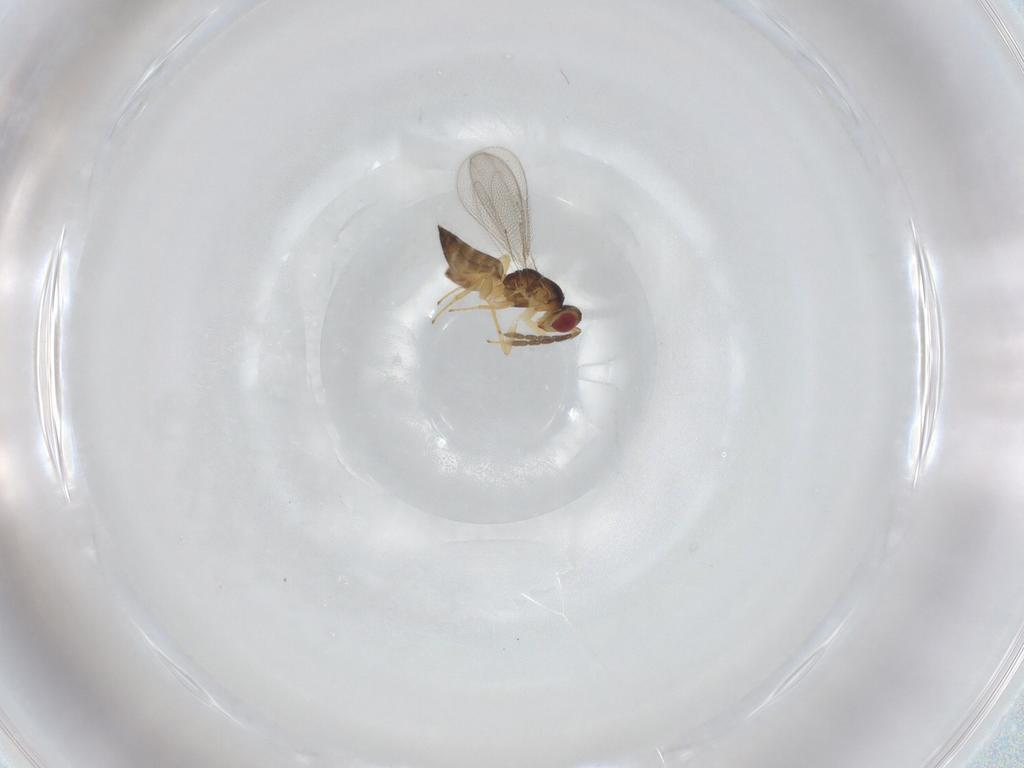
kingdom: Animalia
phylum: Arthropoda
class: Insecta
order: Hymenoptera
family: Eulophidae
